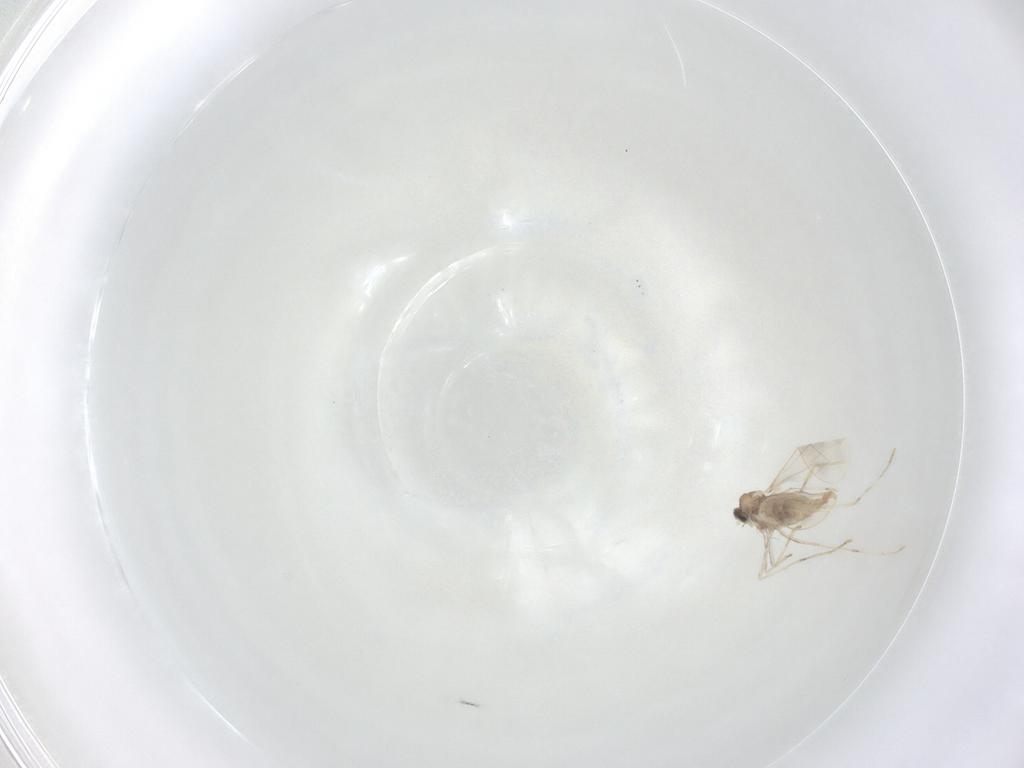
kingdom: Animalia
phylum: Arthropoda
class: Insecta
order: Diptera
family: Cecidomyiidae
